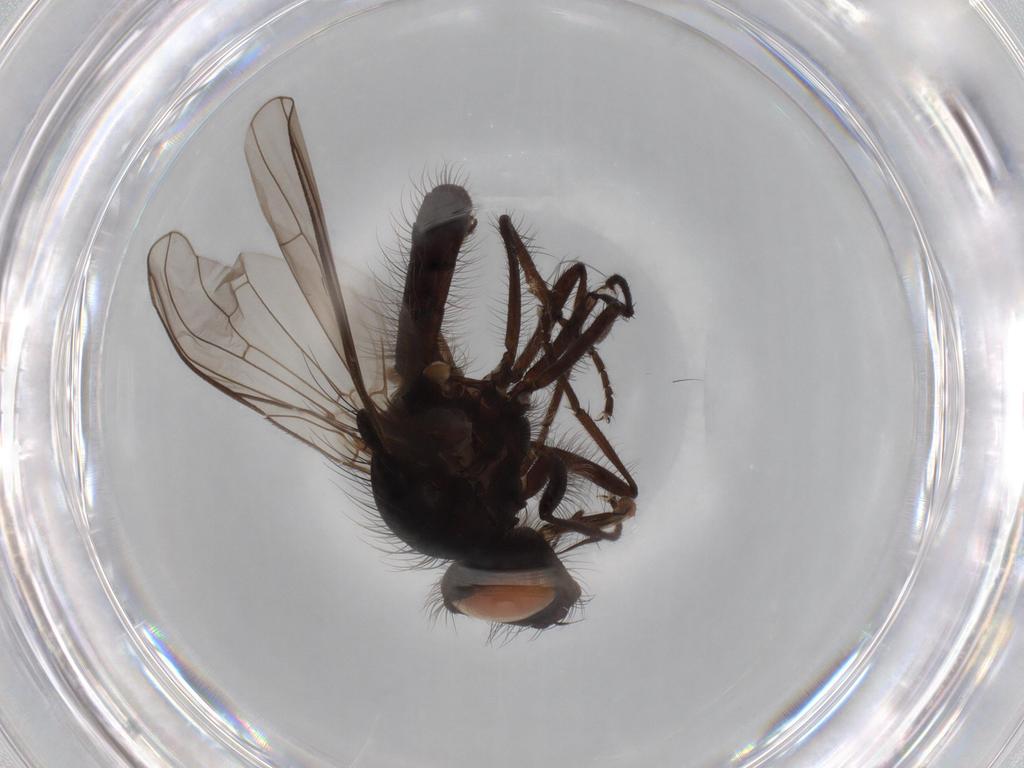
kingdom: Animalia
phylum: Arthropoda
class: Insecta
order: Diptera
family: Anthomyiidae
